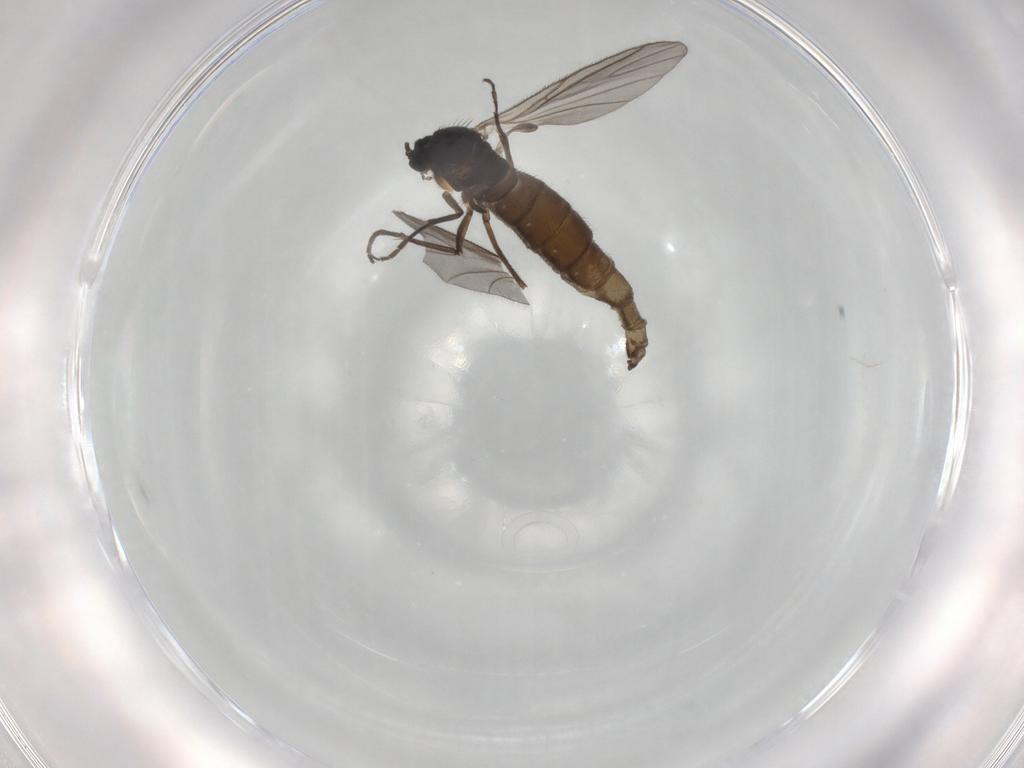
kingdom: Animalia
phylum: Arthropoda
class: Insecta
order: Diptera
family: Sciaridae
